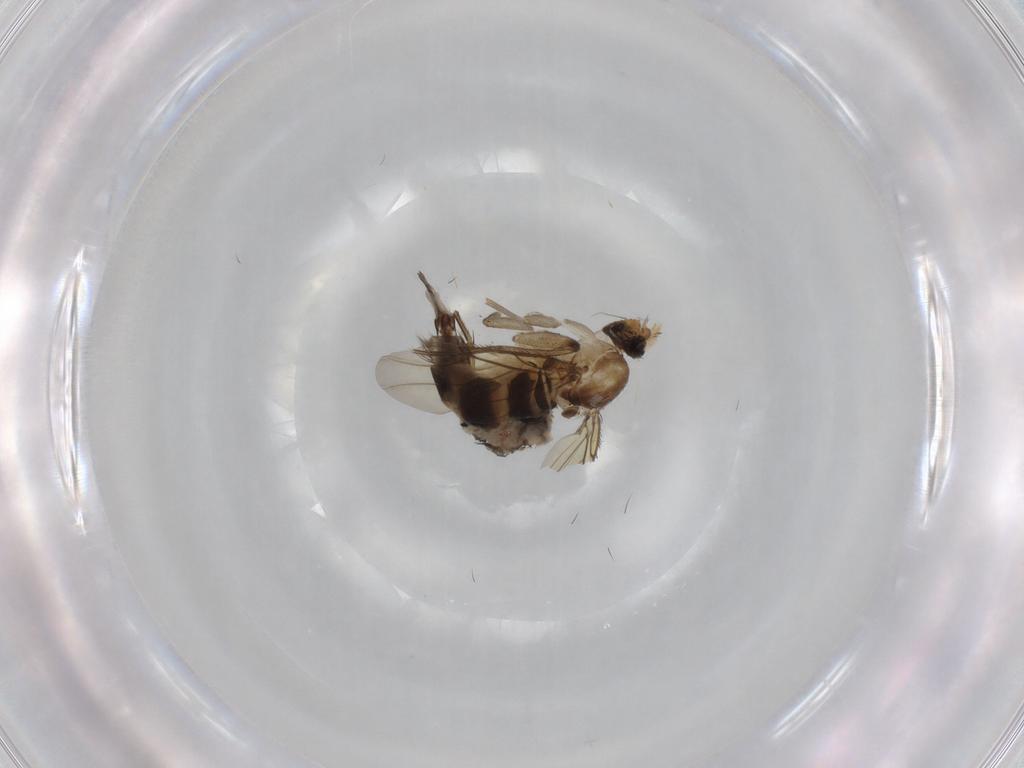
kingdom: Animalia
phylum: Arthropoda
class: Insecta
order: Diptera
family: Phoridae
